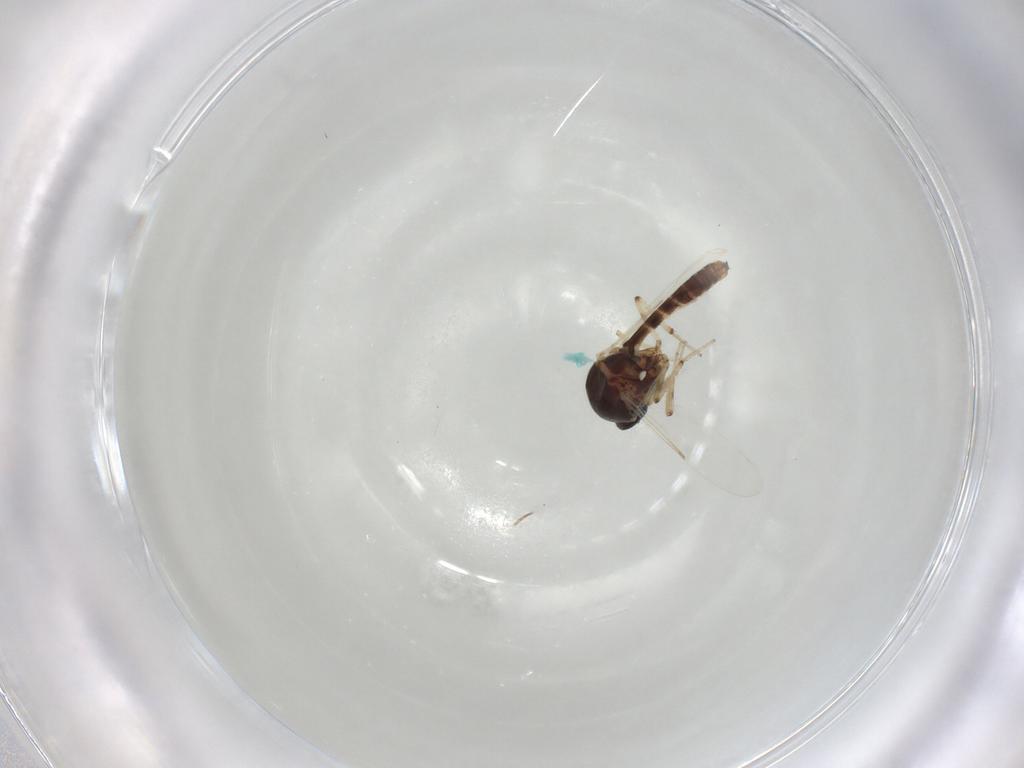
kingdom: Animalia
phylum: Arthropoda
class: Insecta
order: Diptera
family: Ceratopogonidae
